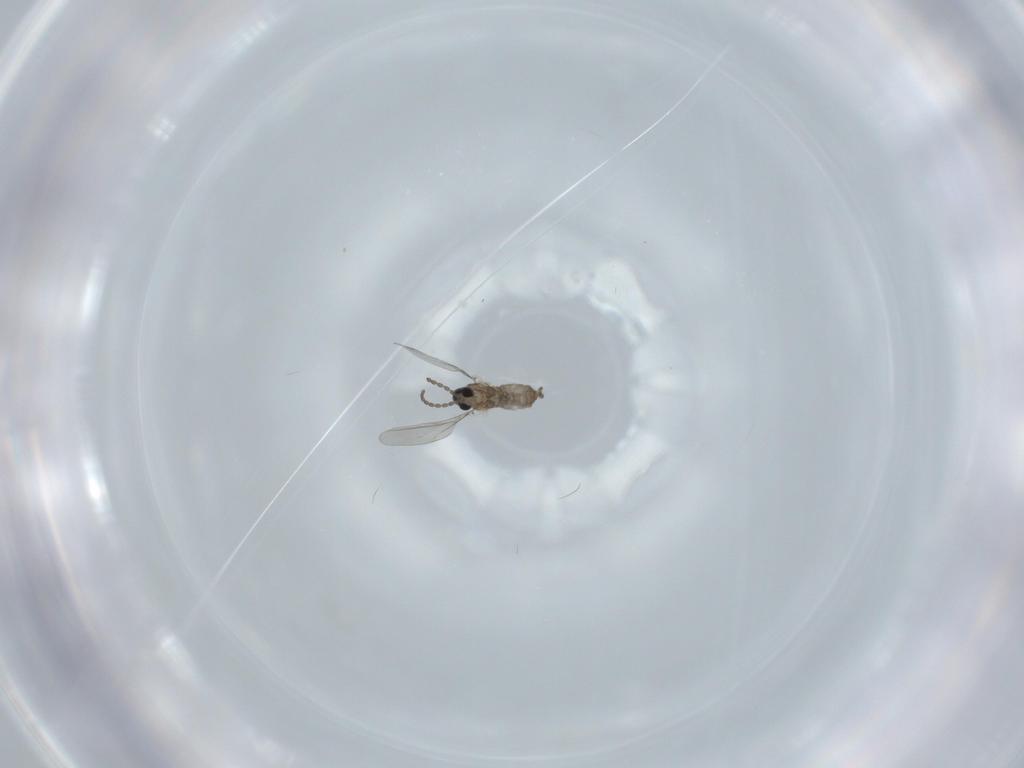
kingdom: Animalia
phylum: Arthropoda
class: Insecta
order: Diptera
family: Cecidomyiidae
